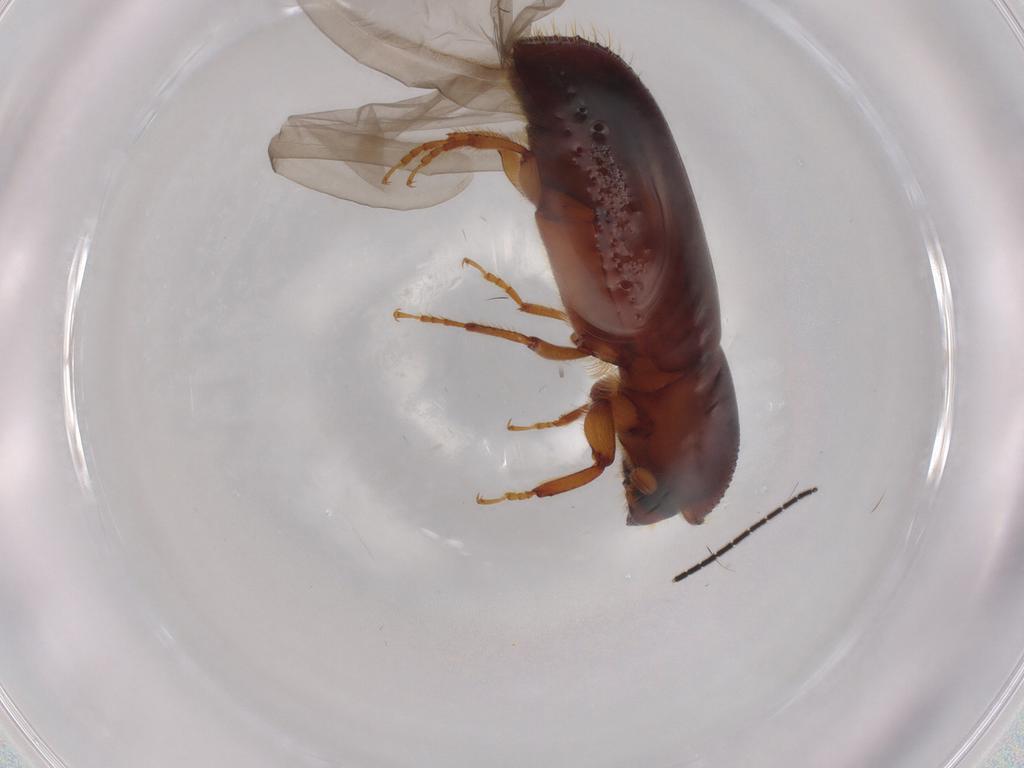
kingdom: Animalia
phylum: Arthropoda
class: Insecta
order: Coleoptera
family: Curculionidae
